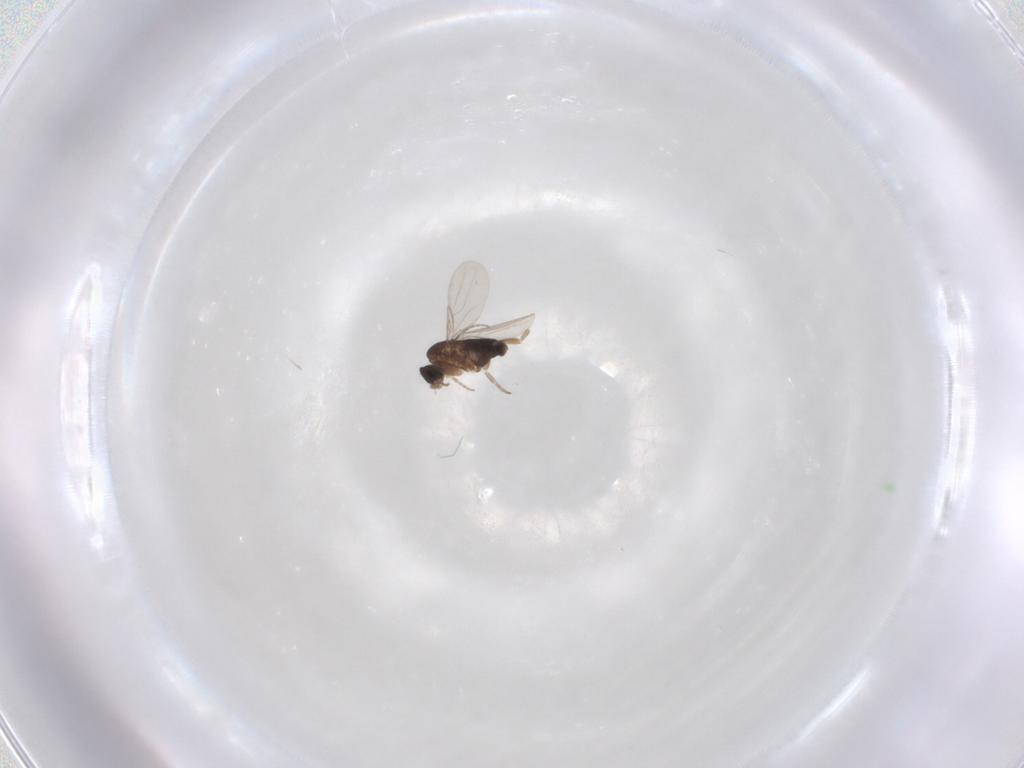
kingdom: Animalia
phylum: Arthropoda
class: Insecta
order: Diptera
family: Phoridae
